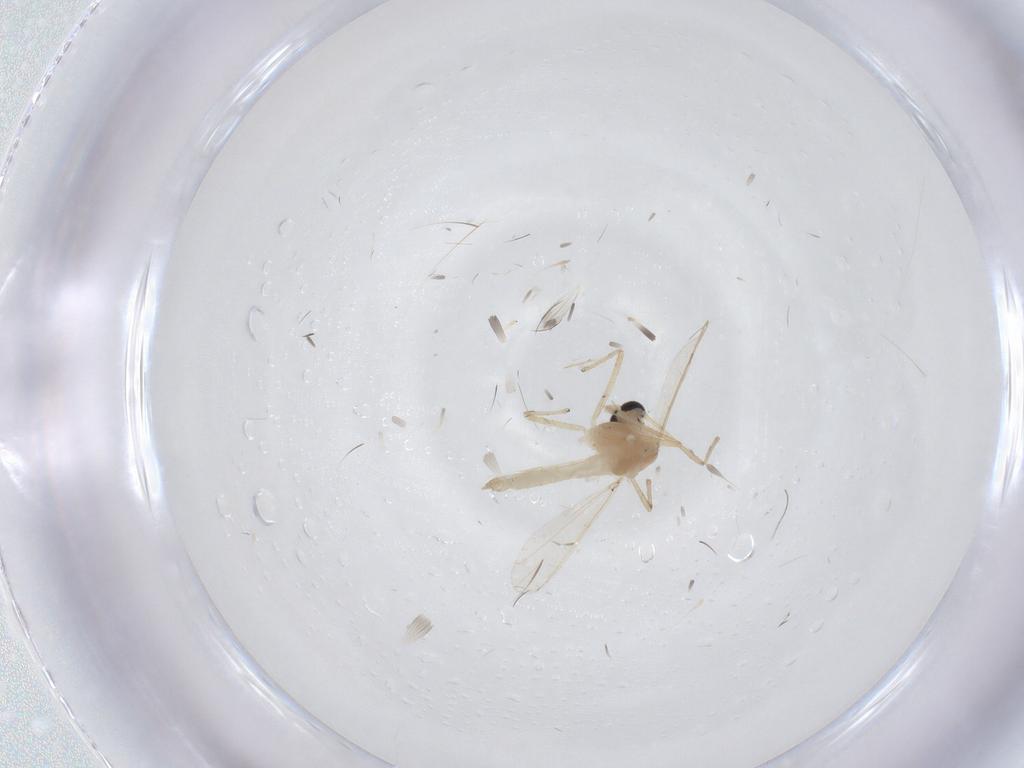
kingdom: Animalia
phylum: Arthropoda
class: Insecta
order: Diptera
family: Chironomidae
